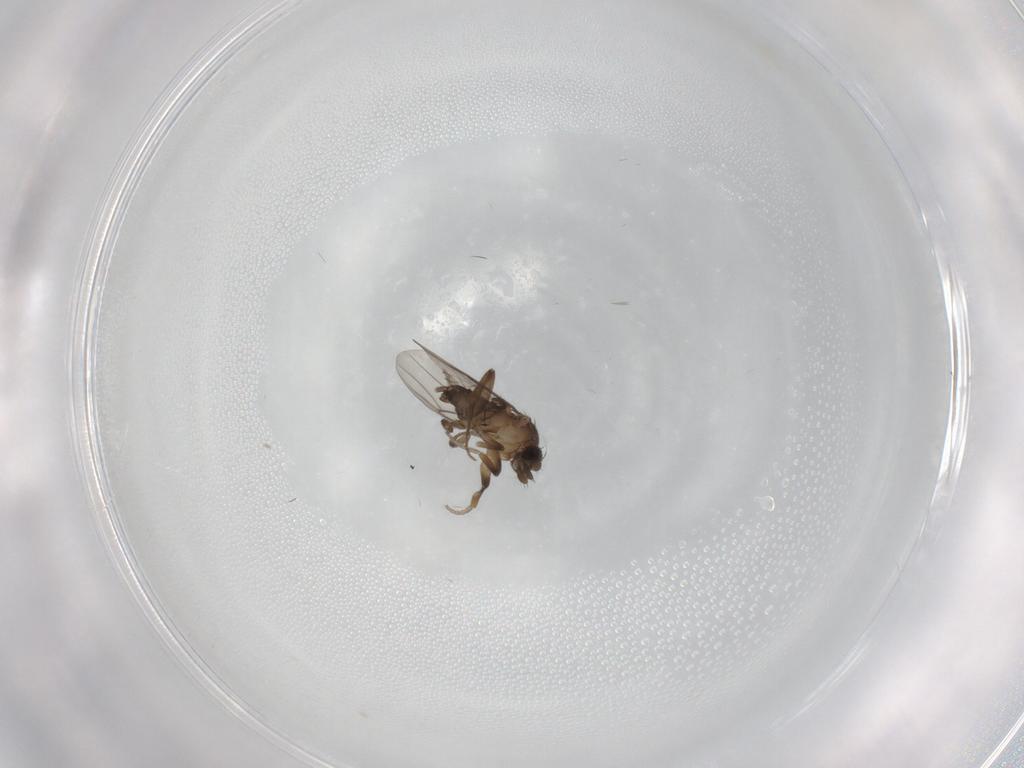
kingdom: Animalia
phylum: Arthropoda
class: Insecta
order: Diptera
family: Phoridae
